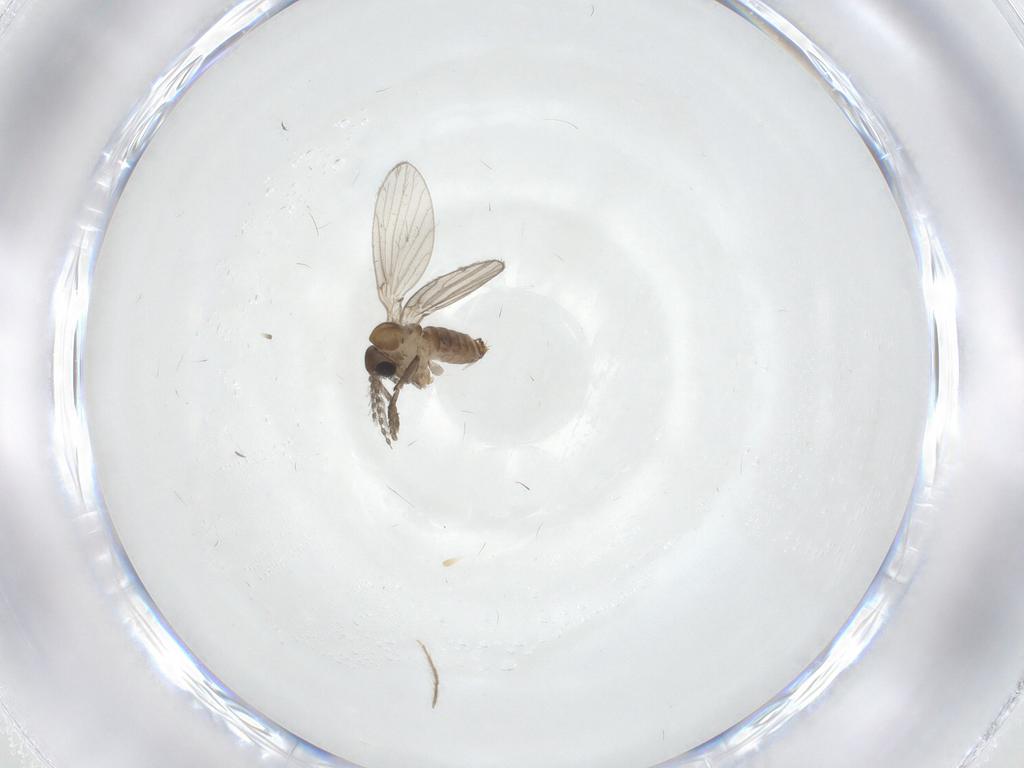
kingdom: Animalia
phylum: Arthropoda
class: Insecta
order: Diptera
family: Psychodidae
